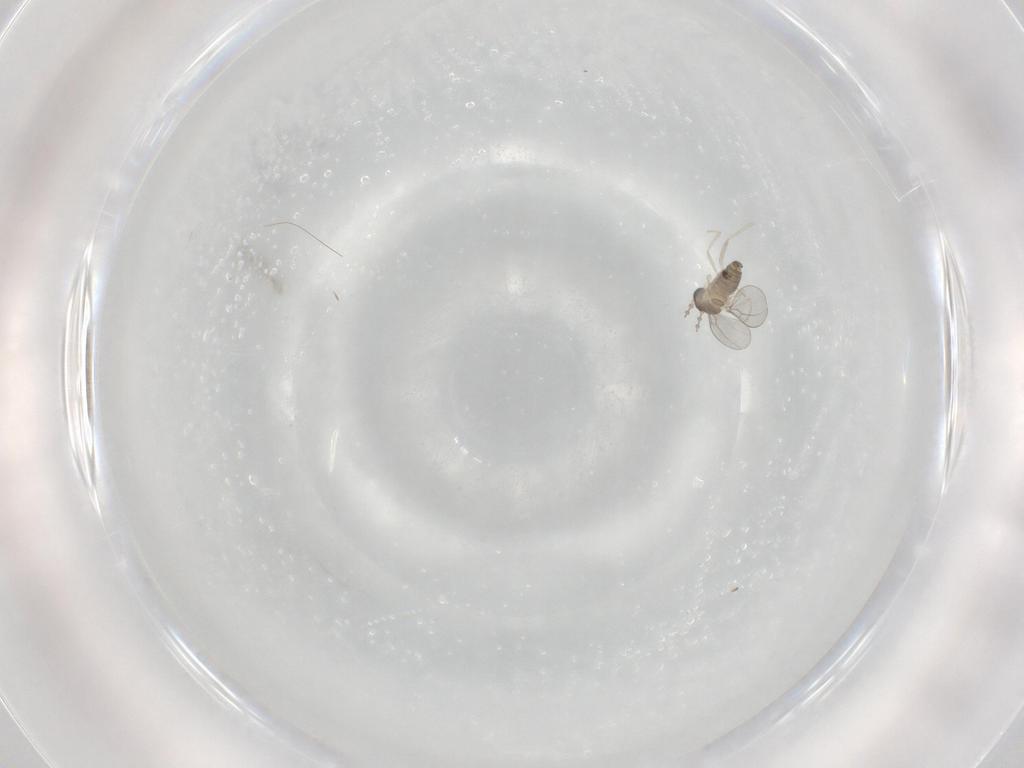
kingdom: Animalia
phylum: Arthropoda
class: Insecta
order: Diptera
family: Cecidomyiidae
